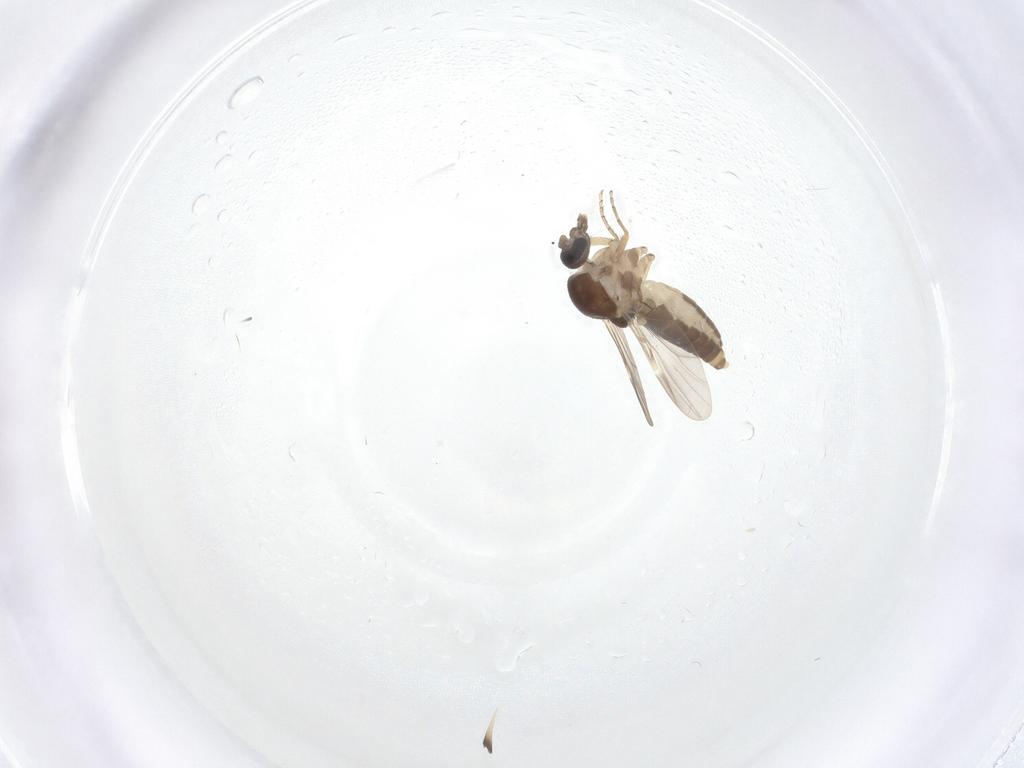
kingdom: Animalia
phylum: Arthropoda
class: Insecta
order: Diptera
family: Ceratopogonidae
